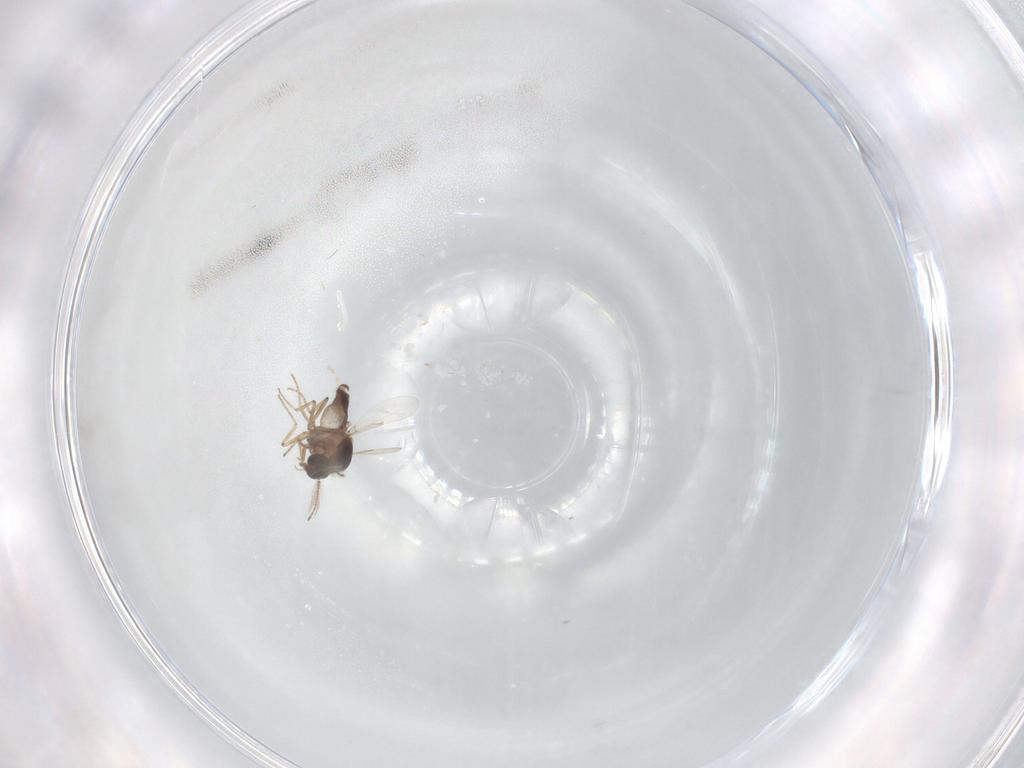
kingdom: Animalia
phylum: Arthropoda
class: Insecta
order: Diptera
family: Ceratopogonidae
